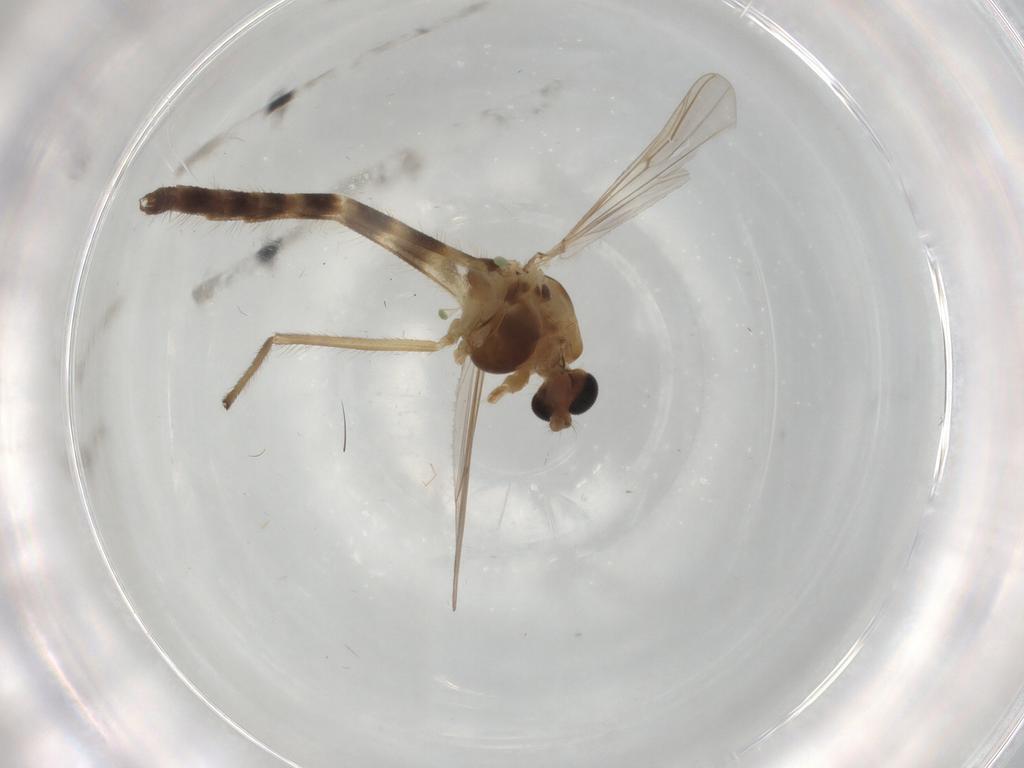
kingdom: Animalia
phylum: Arthropoda
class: Insecta
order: Diptera
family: Chironomidae
